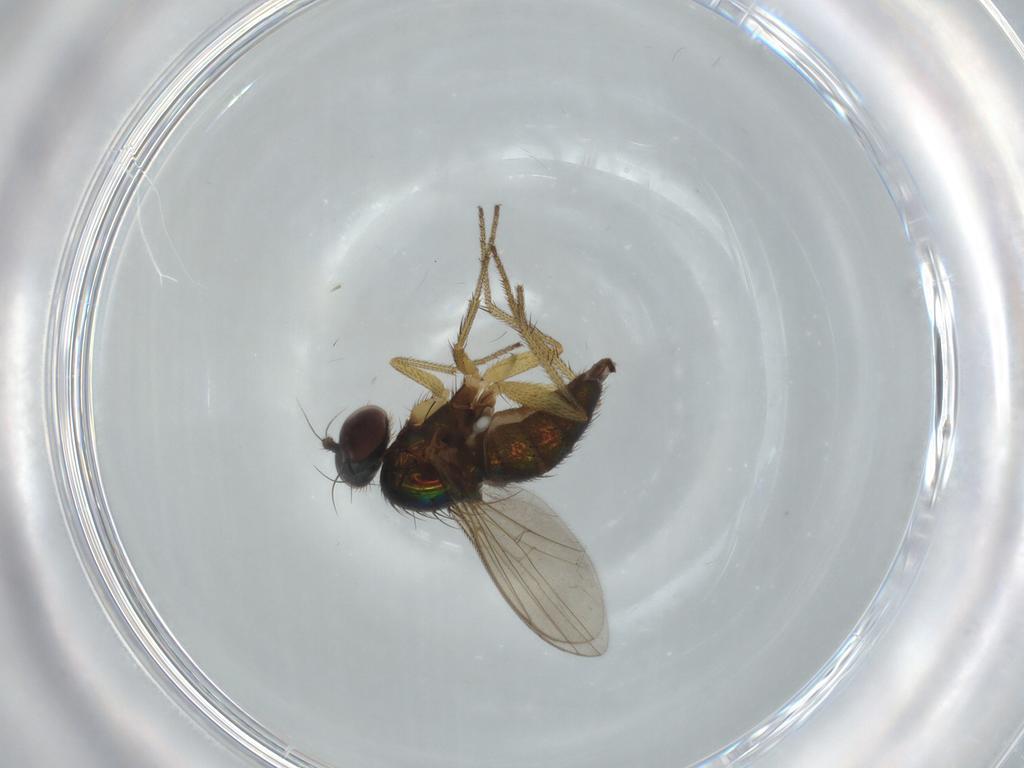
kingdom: Animalia
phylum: Arthropoda
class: Insecta
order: Diptera
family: Dolichopodidae
